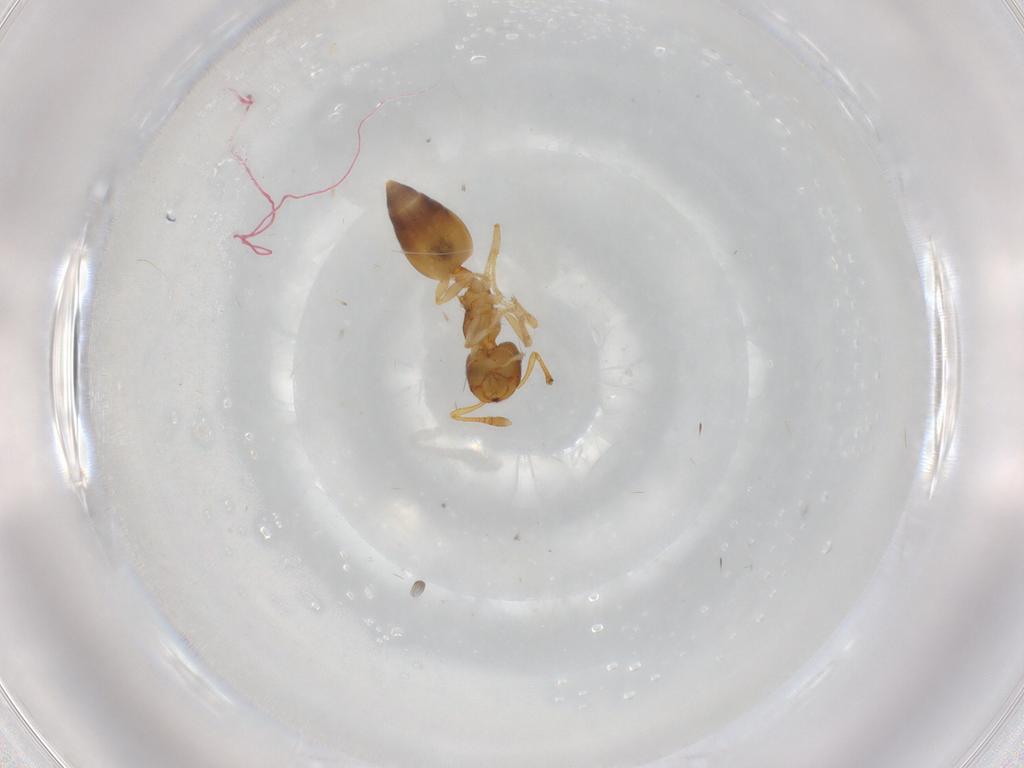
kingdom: Animalia
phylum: Arthropoda
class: Insecta
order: Hymenoptera
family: Formicidae
